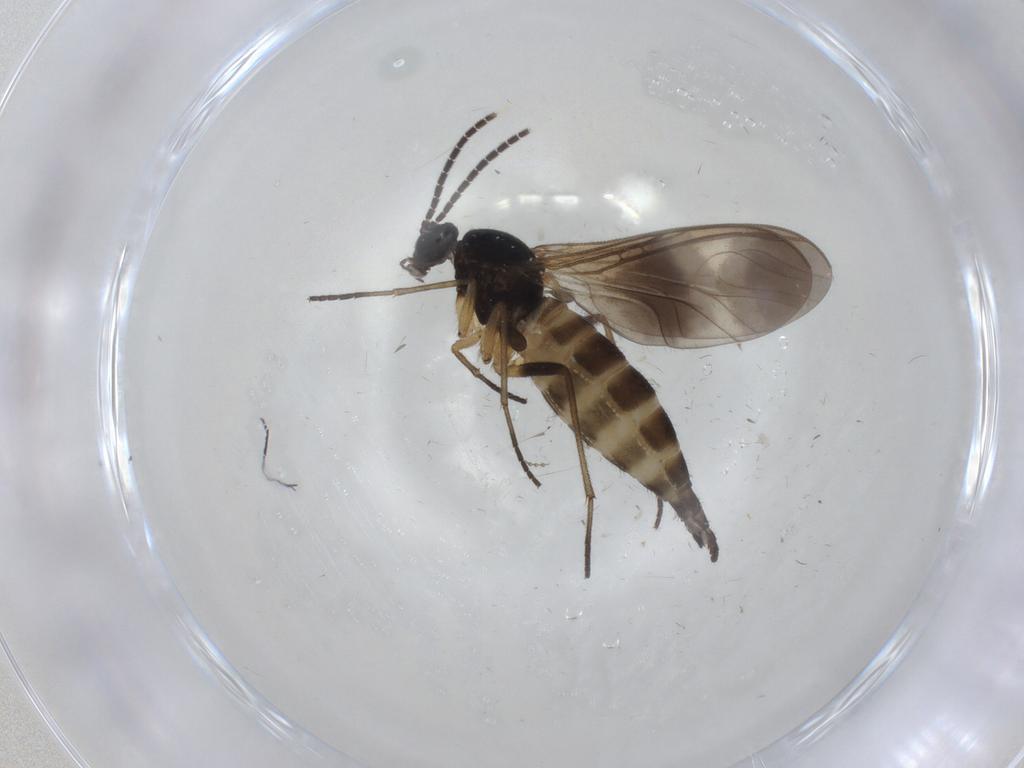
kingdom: Animalia
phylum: Arthropoda
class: Insecta
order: Diptera
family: Sciaridae
